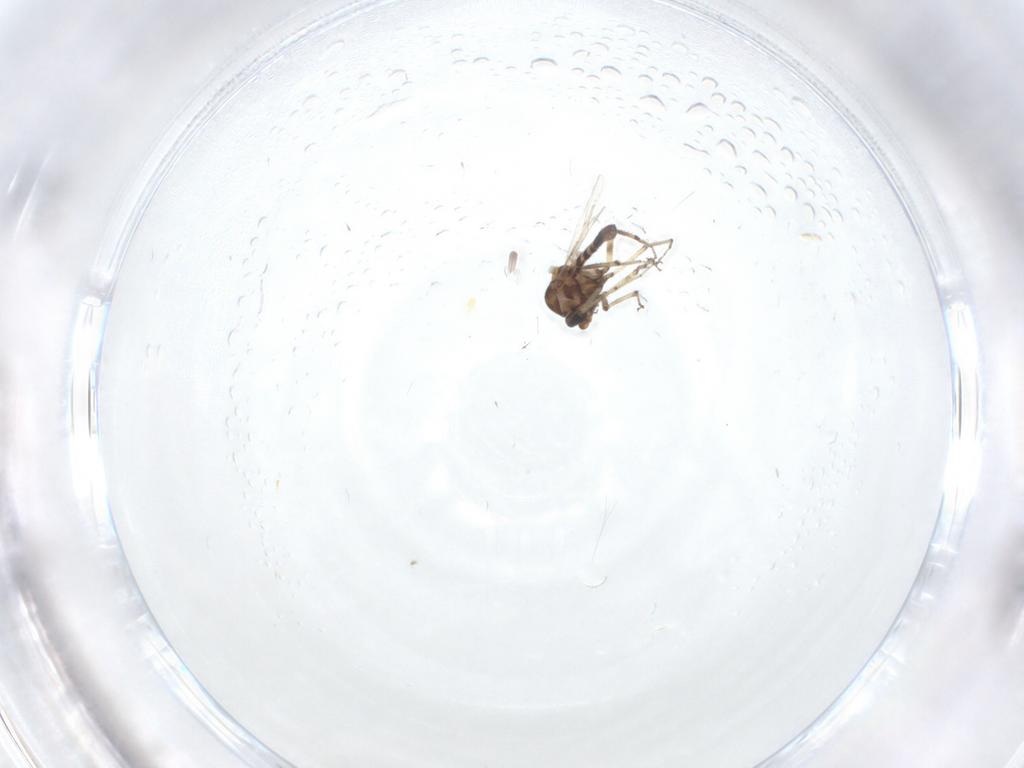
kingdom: Animalia
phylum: Arthropoda
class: Insecta
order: Diptera
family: Ceratopogonidae
